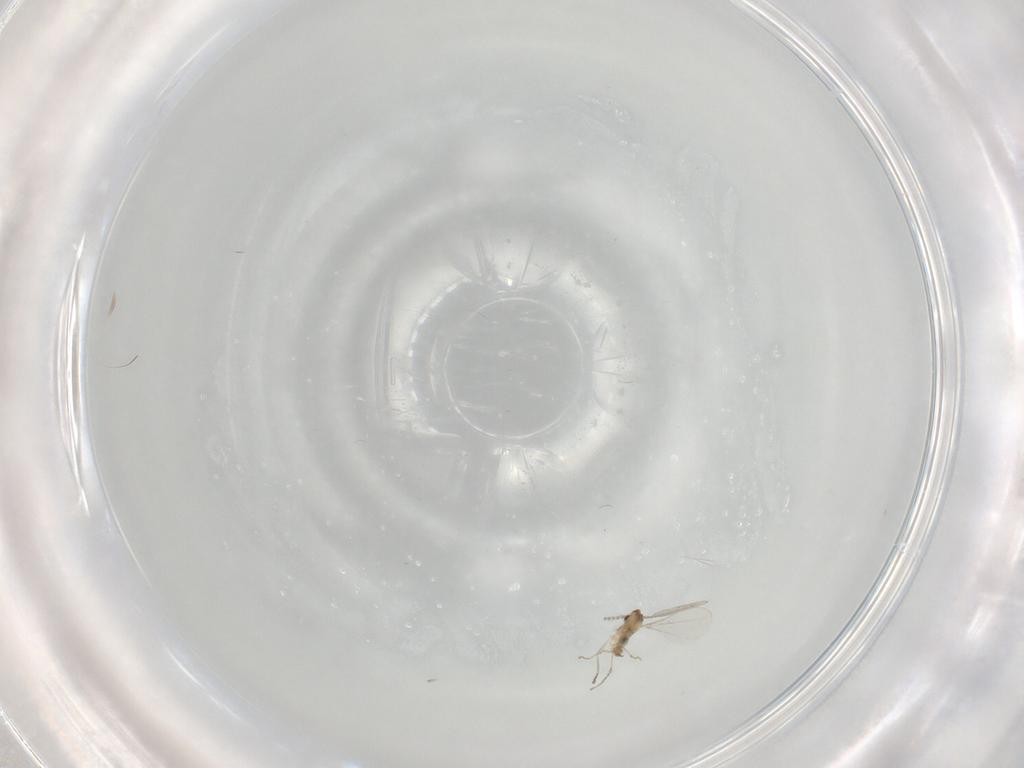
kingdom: Animalia
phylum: Arthropoda
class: Insecta
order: Diptera
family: Cecidomyiidae
